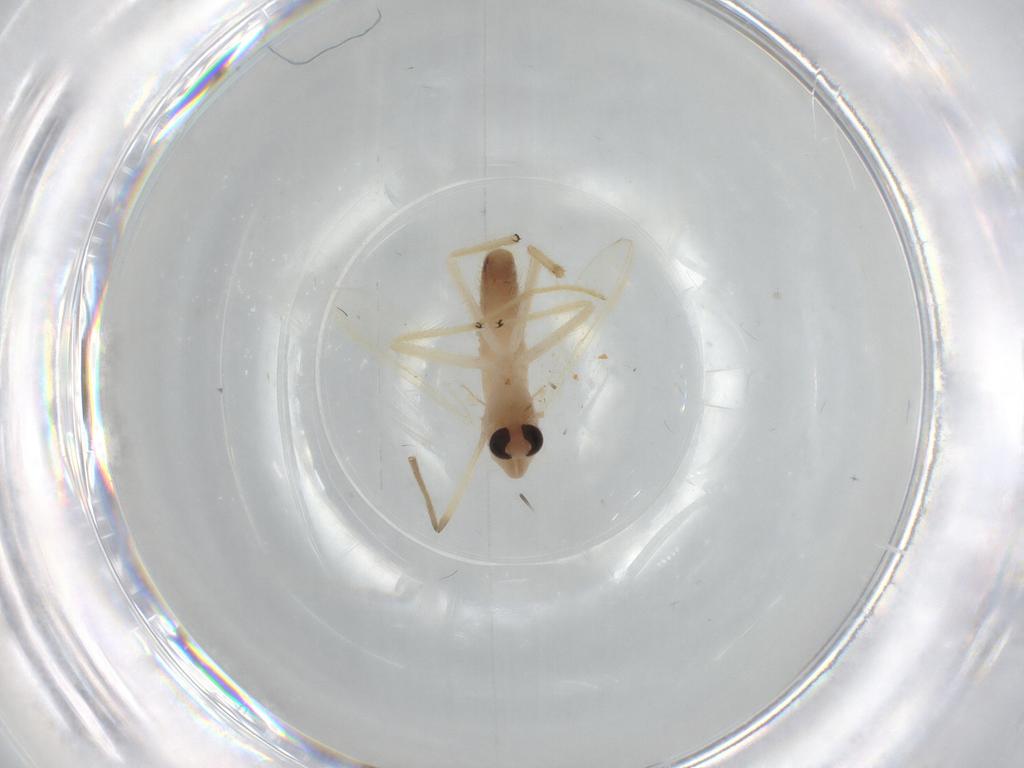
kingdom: Animalia
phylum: Arthropoda
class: Insecta
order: Diptera
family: Chironomidae
